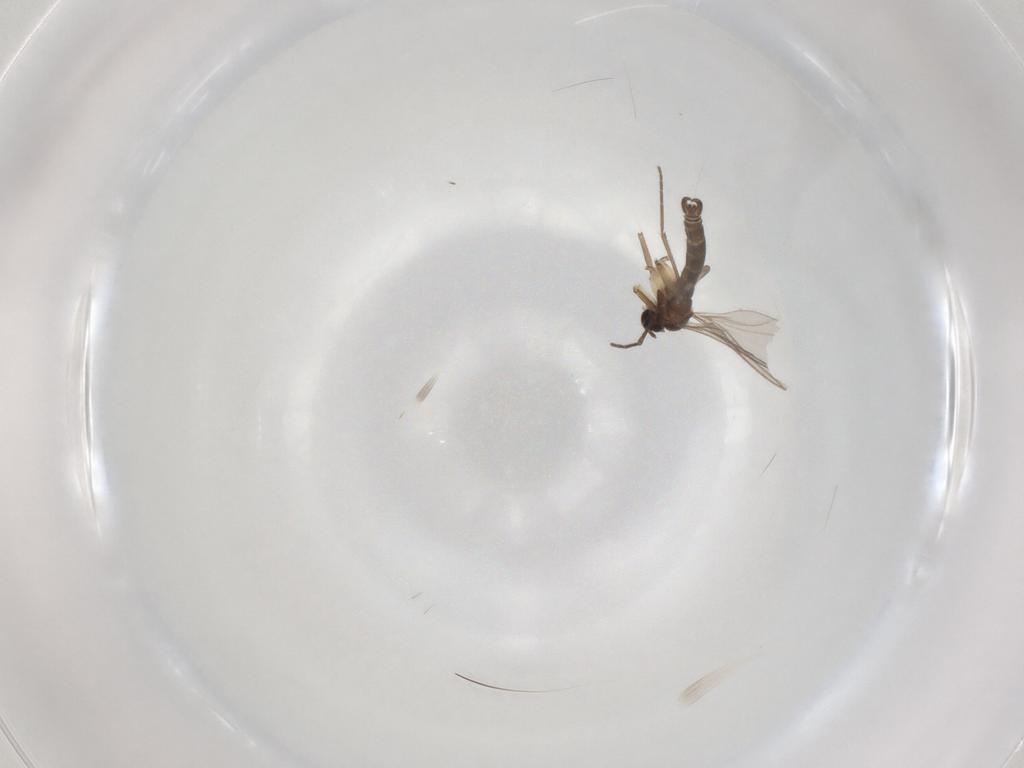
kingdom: Animalia
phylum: Arthropoda
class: Insecta
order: Diptera
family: Sciaridae
